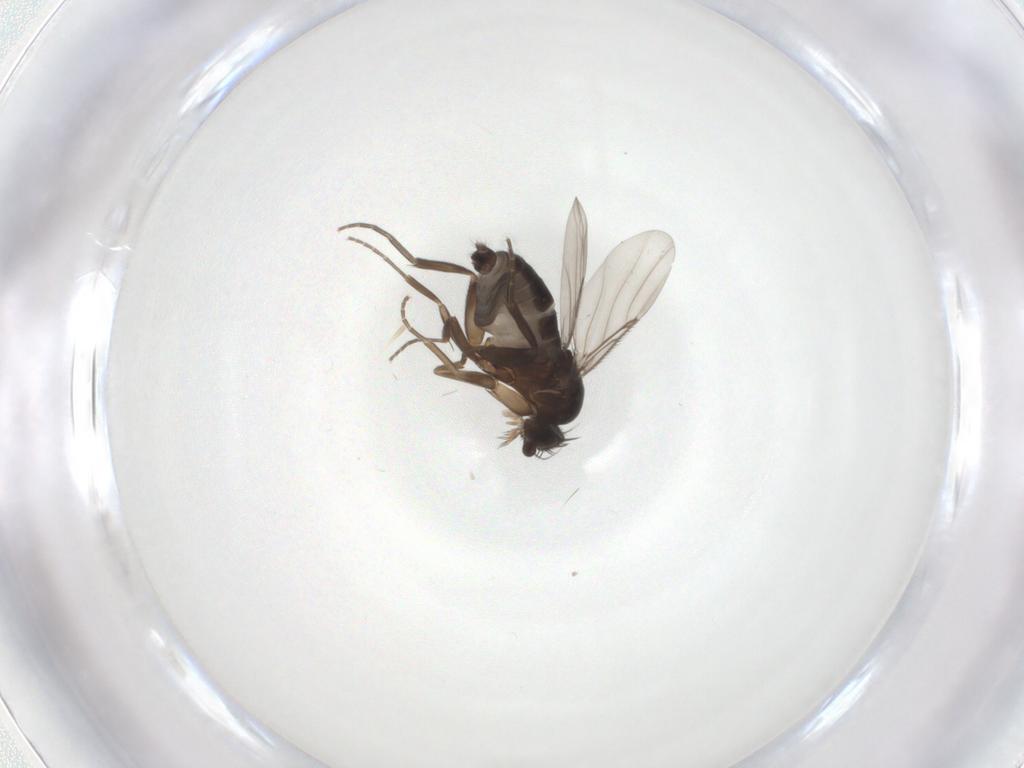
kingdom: Animalia
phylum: Arthropoda
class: Insecta
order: Diptera
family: Phoridae
